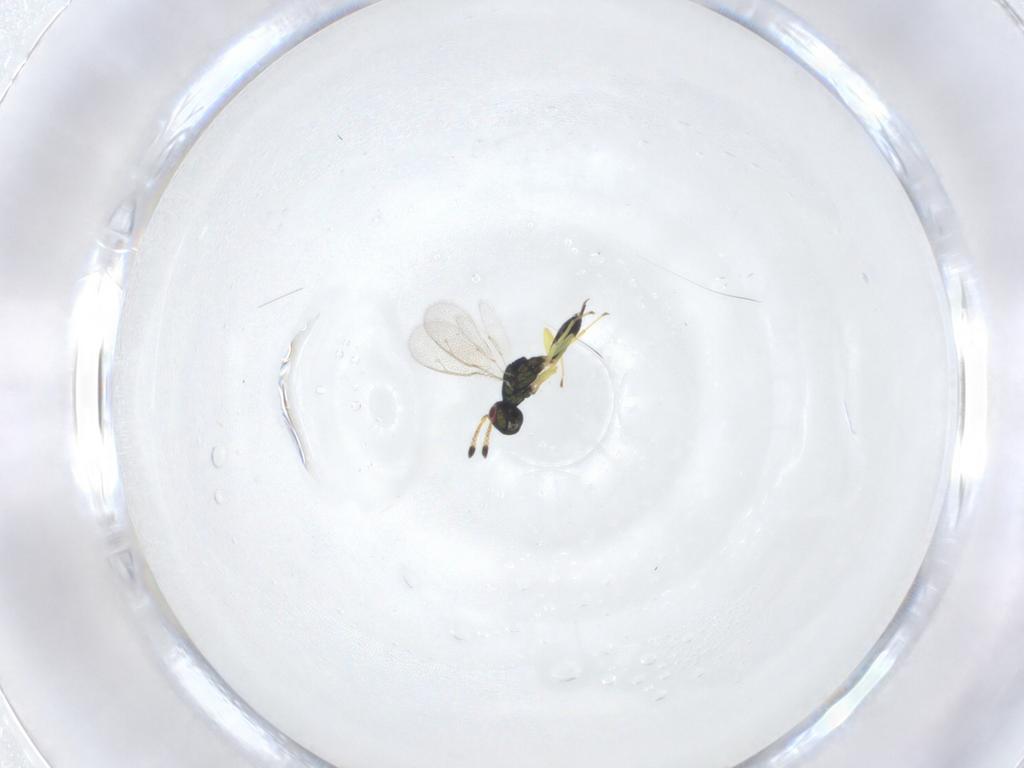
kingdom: Animalia
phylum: Arthropoda
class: Insecta
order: Hymenoptera
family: Pteromalidae
